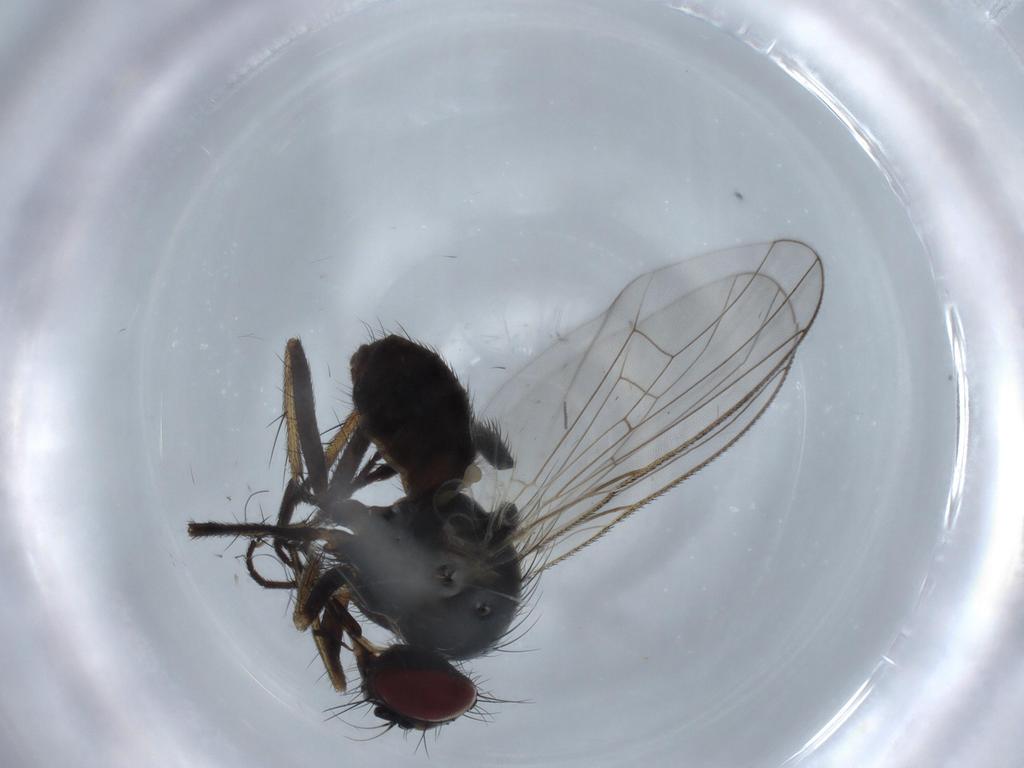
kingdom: Animalia
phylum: Arthropoda
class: Insecta
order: Diptera
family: Muscidae
